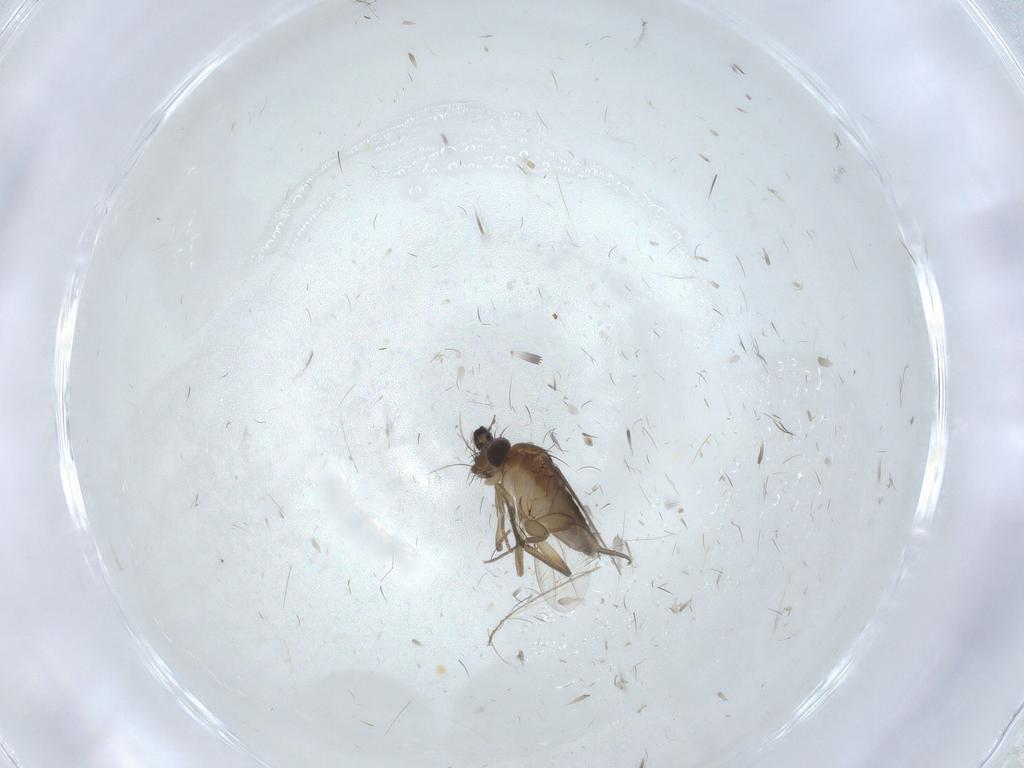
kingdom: Animalia
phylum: Arthropoda
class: Insecta
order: Diptera
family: Phoridae
